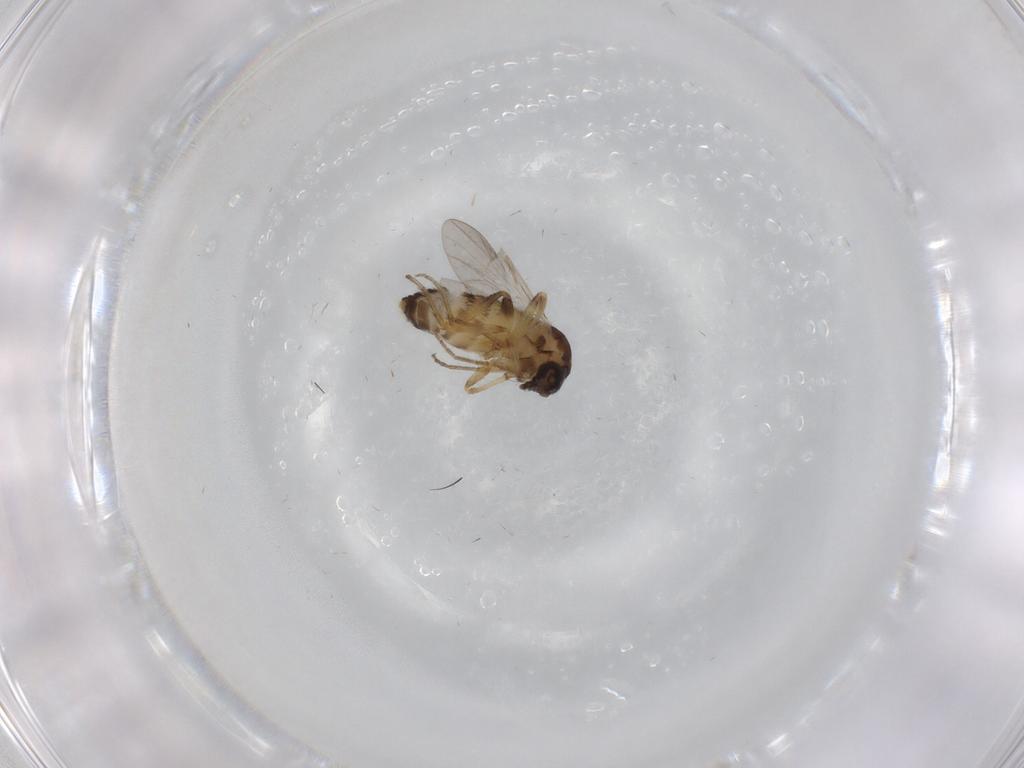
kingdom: Animalia
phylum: Arthropoda
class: Insecta
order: Diptera
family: Ceratopogonidae
